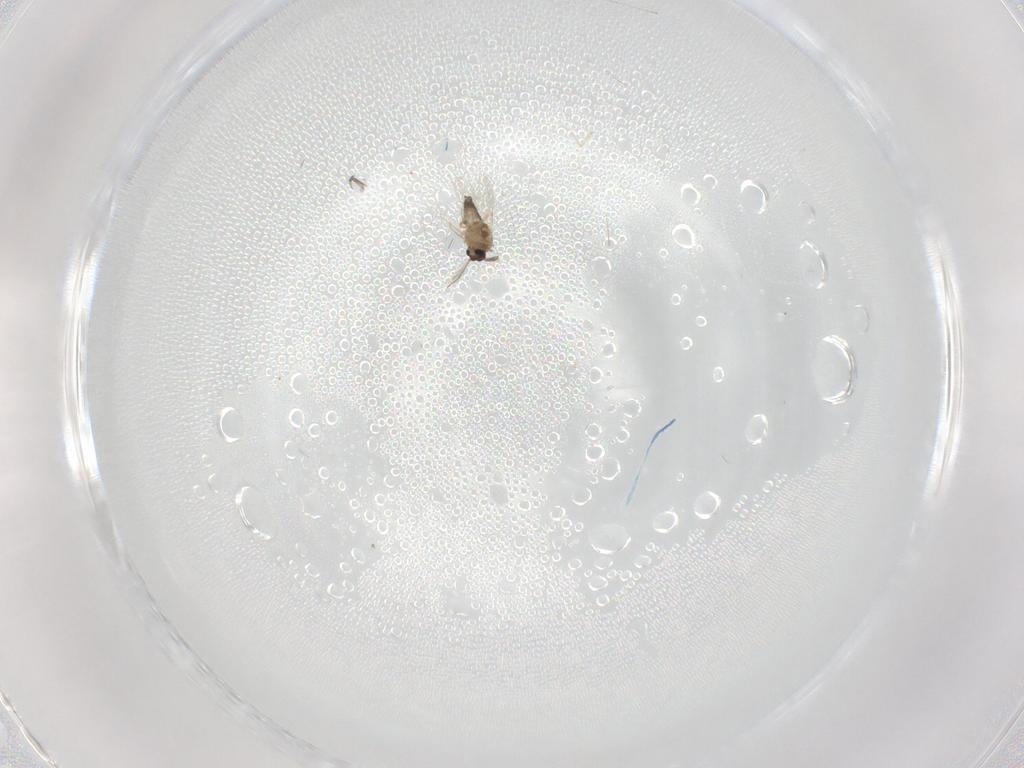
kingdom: Animalia
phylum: Arthropoda
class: Insecta
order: Diptera
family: Ceratopogonidae
